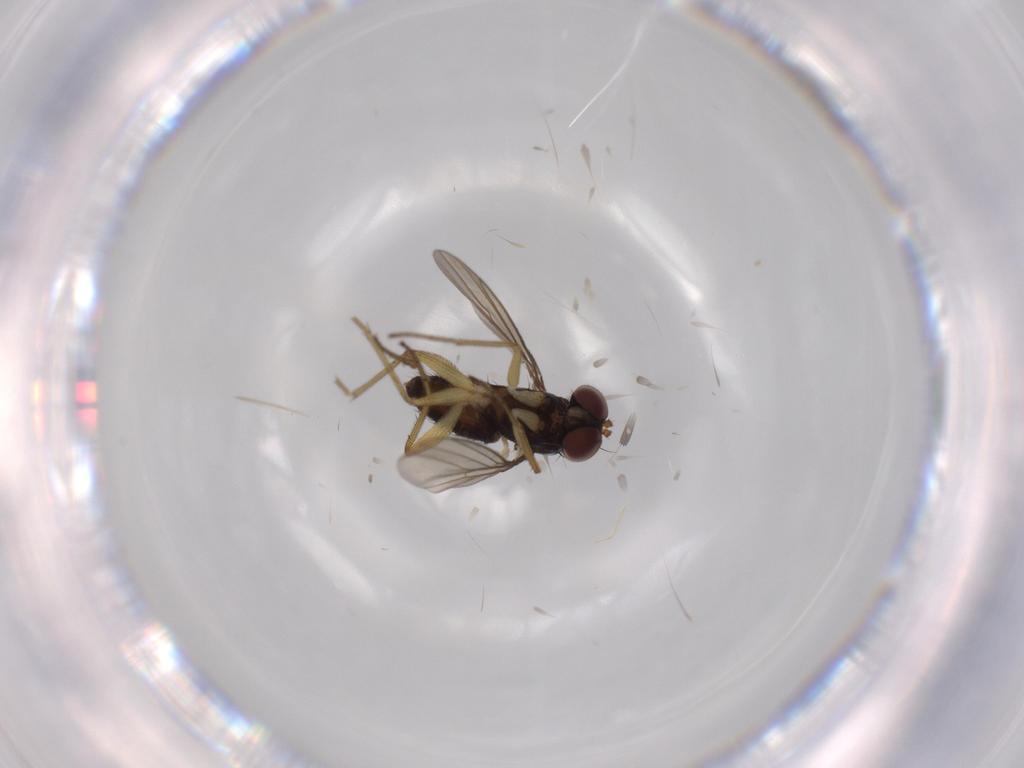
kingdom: Animalia
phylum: Arthropoda
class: Insecta
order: Diptera
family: Dolichopodidae
